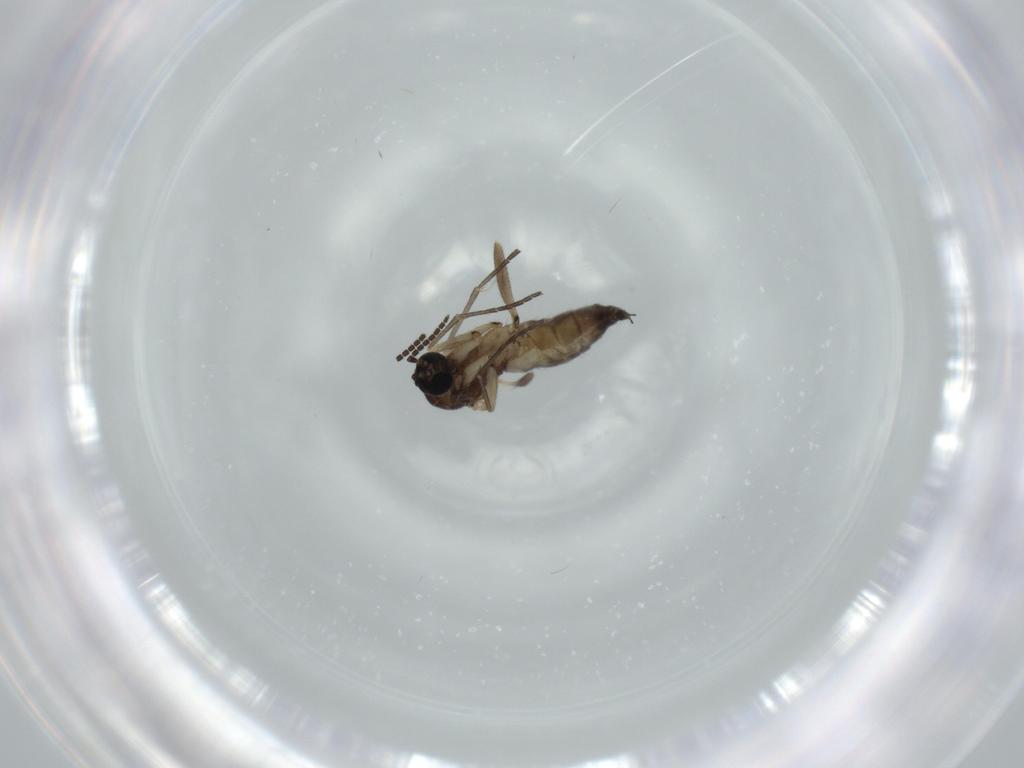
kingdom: Animalia
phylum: Arthropoda
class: Insecta
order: Diptera
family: Sciaridae
